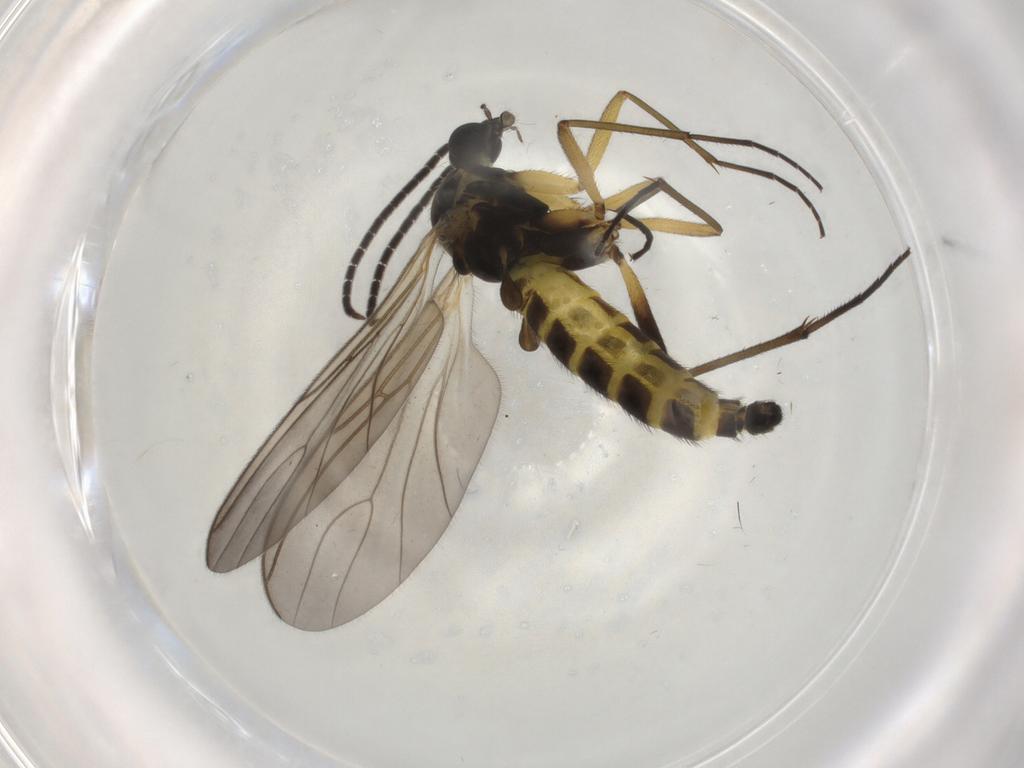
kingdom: Animalia
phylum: Arthropoda
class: Insecta
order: Diptera
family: Sciaridae
